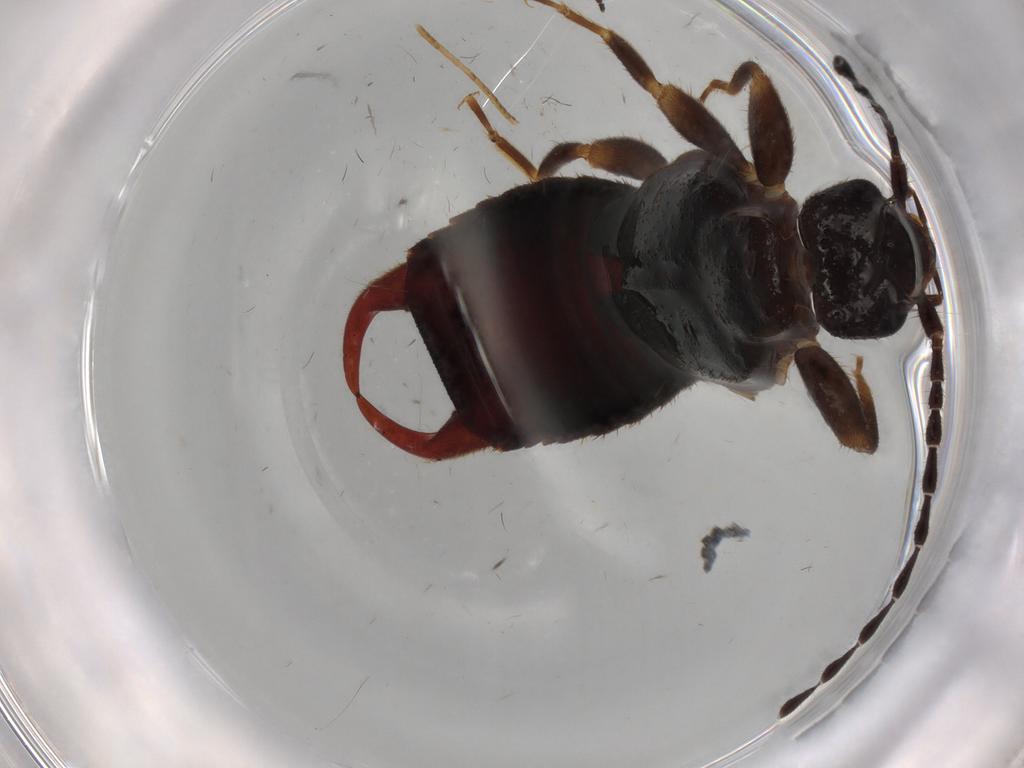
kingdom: Animalia
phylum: Arthropoda
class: Insecta
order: Dermaptera
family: Forficulidae
